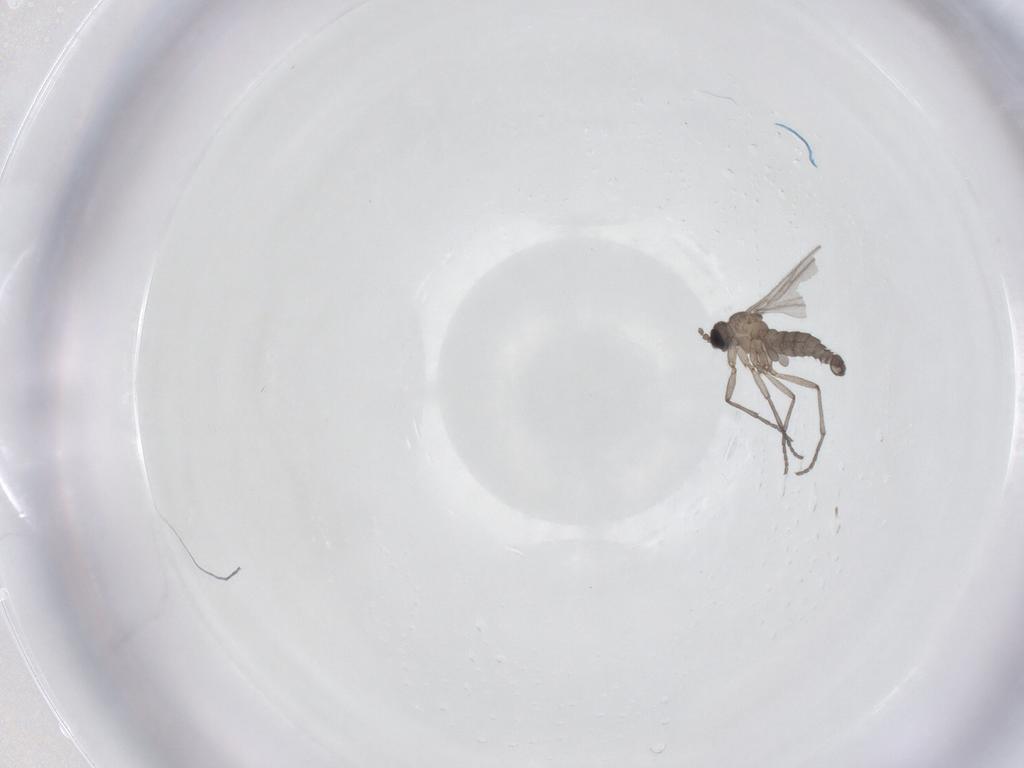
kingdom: Animalia
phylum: Arthropoda
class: Insecta
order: Diptera
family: Sciaridae
